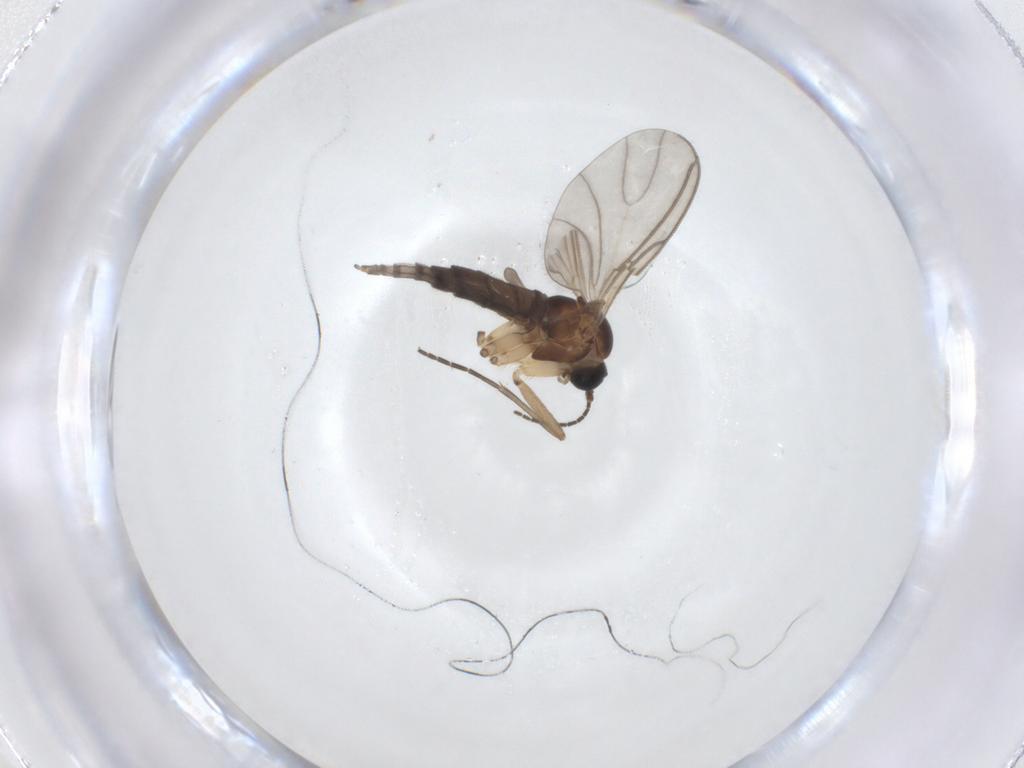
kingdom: Animalia
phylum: Arthropoda
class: Insecta
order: Diptera
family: Sciaridae
